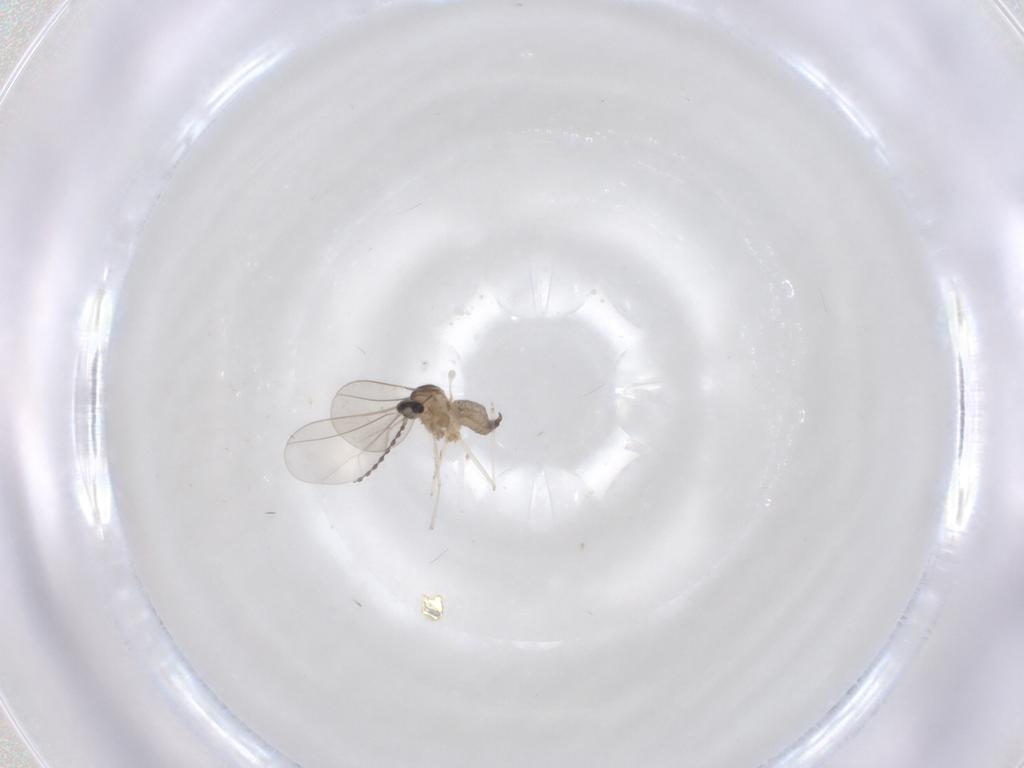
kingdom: Animalia
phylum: Arthropoda
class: Insecta
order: Diptera
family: Cecidomyiidae
